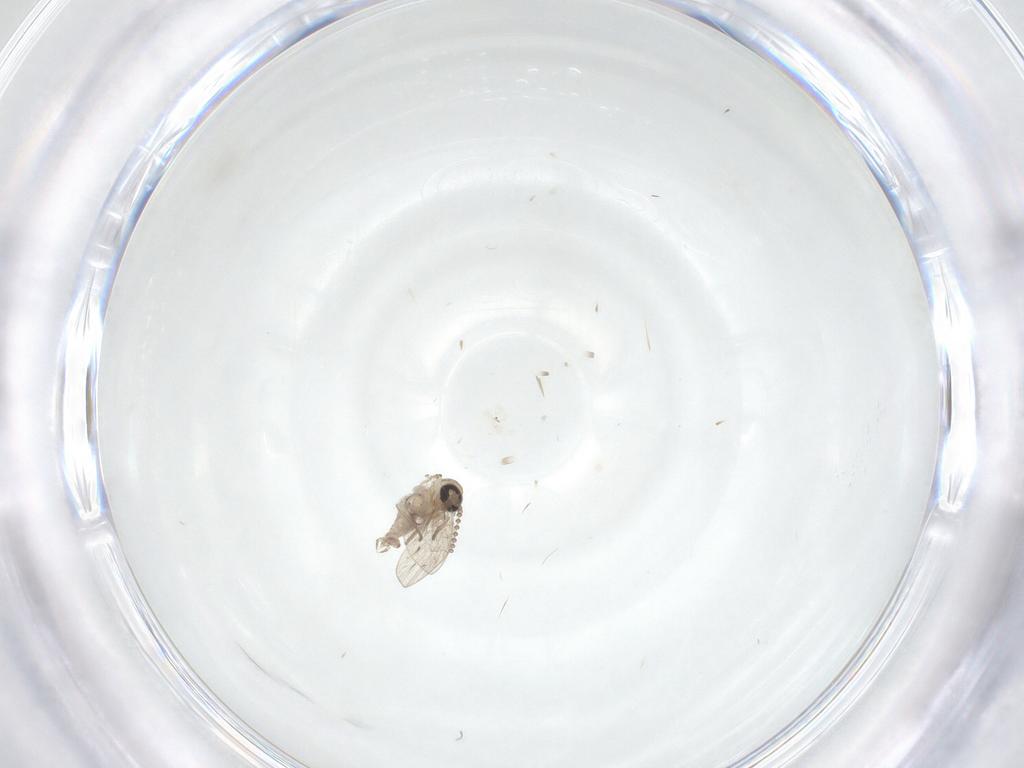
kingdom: Animalia
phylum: Arthropoda
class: Insecta
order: Diptera
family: Psychodidae
